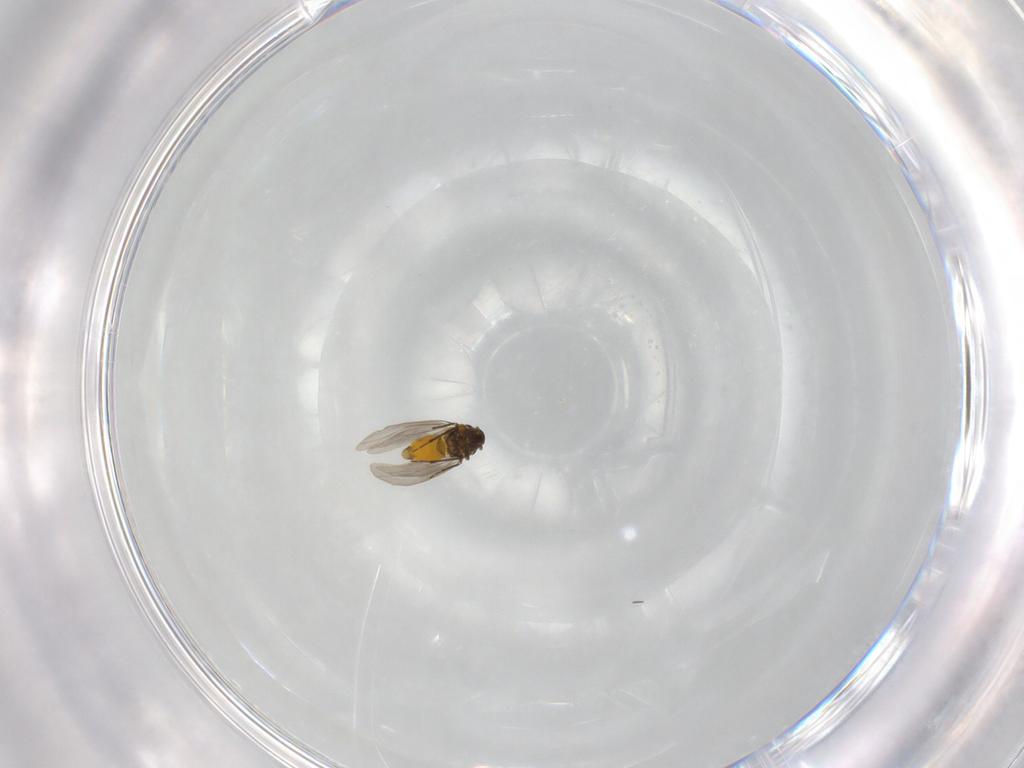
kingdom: Animalia
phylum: Arthropoda
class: Insecta
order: Hemiptera
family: Aleyrodidae
